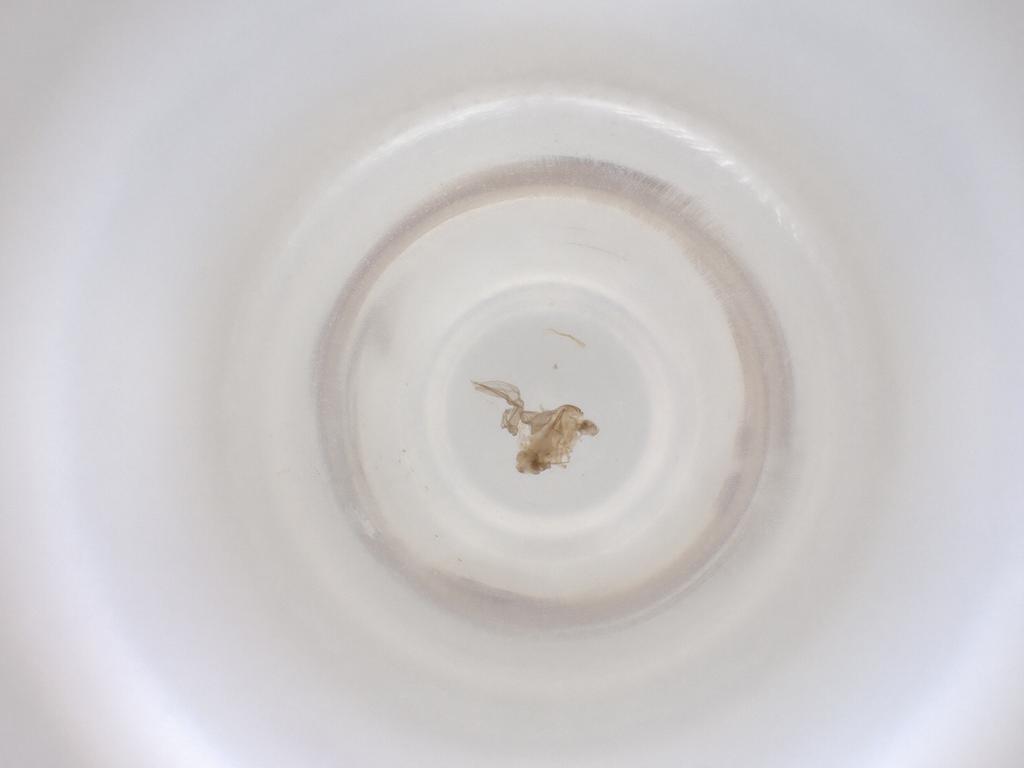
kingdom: Animalia
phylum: Arthropoda
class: Insecta
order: Diptera
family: Cecidomyiidae
